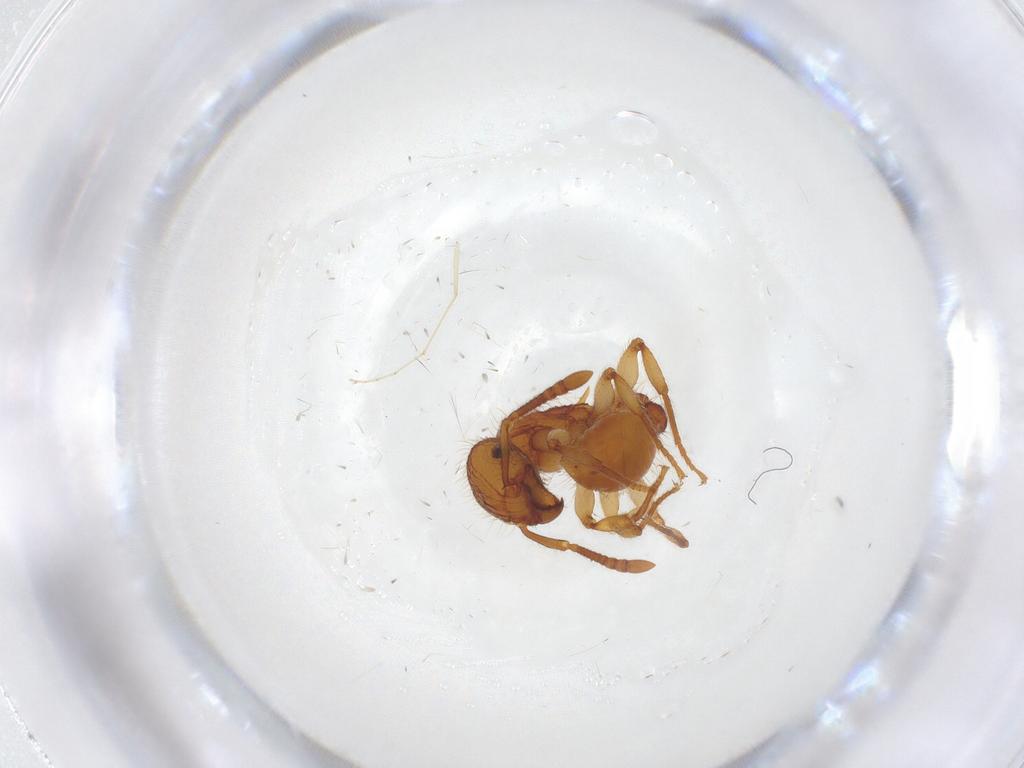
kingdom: Animalia
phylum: Arthropoda
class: Insecta
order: Hymenoptera
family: Formicidae
